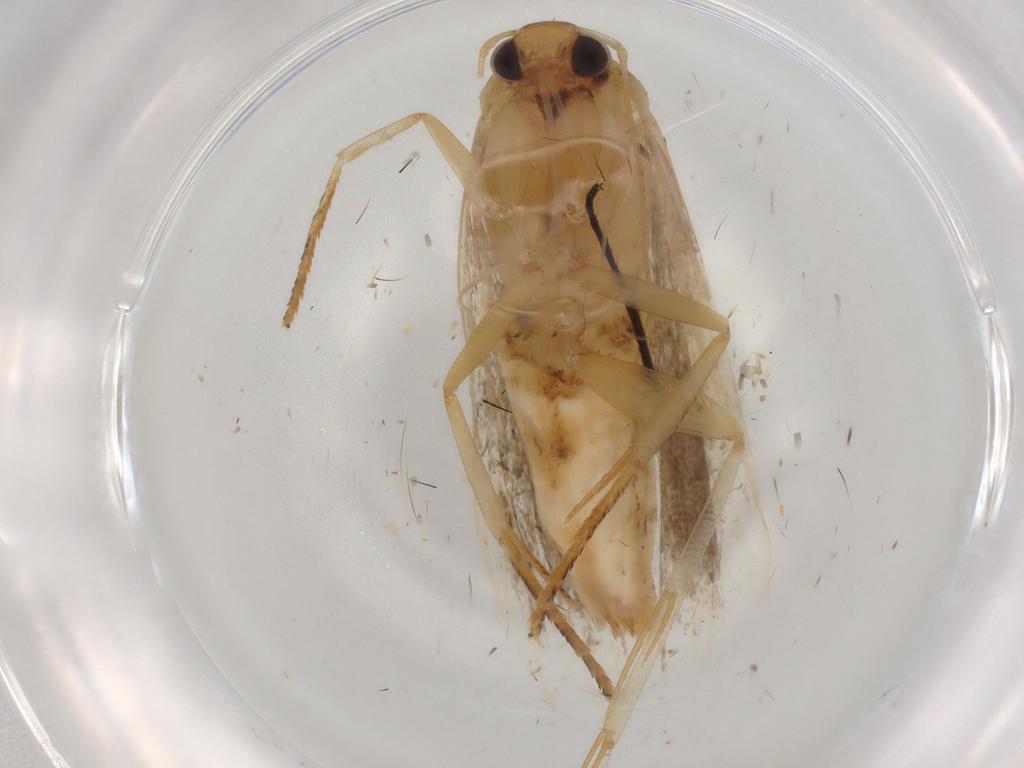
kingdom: Animalia
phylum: Arthropoda
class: Insecta
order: Lepidoptera
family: Gelechiidae
